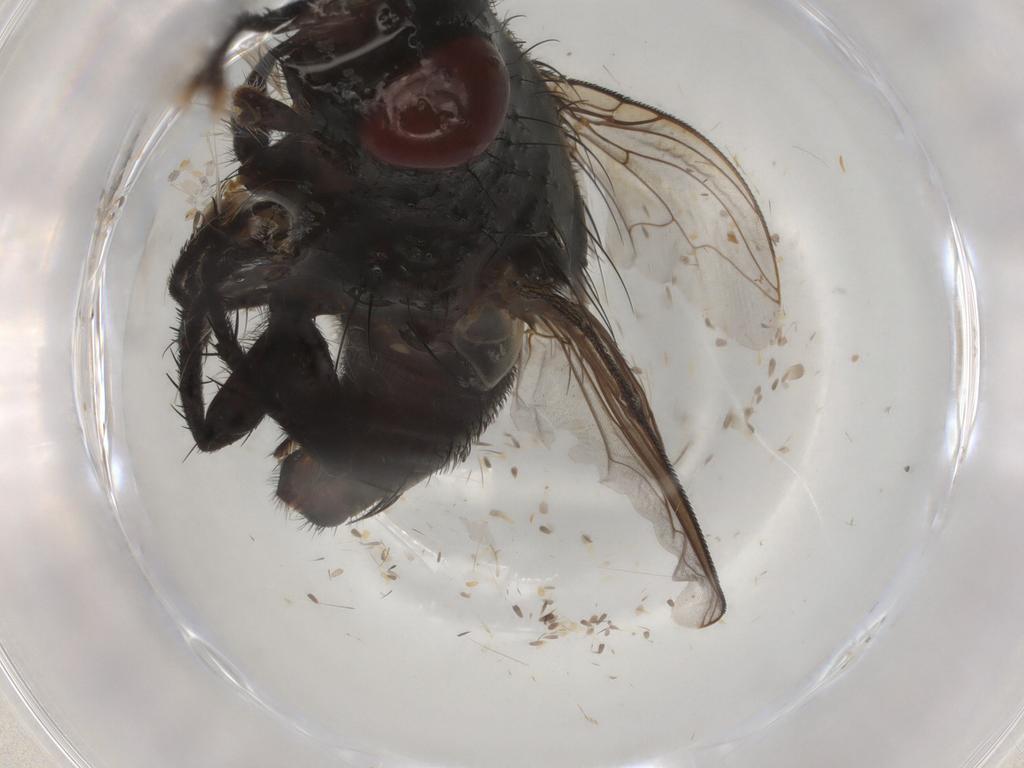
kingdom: Animalia
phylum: Arthropoda
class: Insecta
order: Diptera
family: Sarcophagidae
